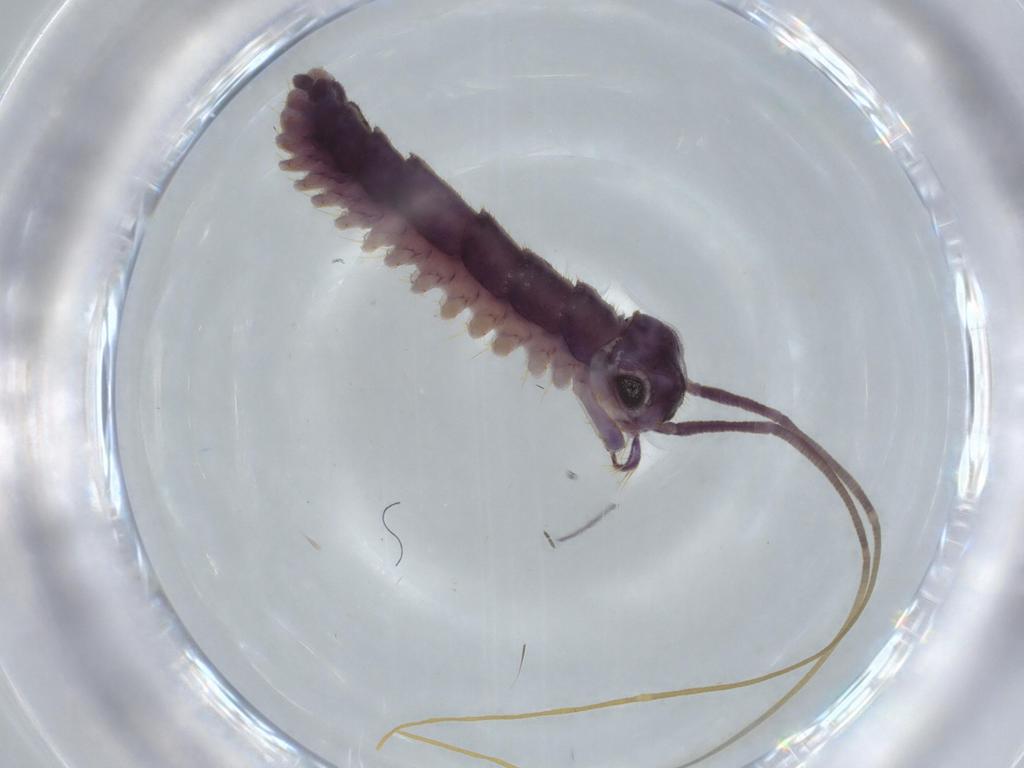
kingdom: Animalia
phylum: Arthropoda
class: Chilopoda
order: Scutigeromorpha
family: Scutigeridae
